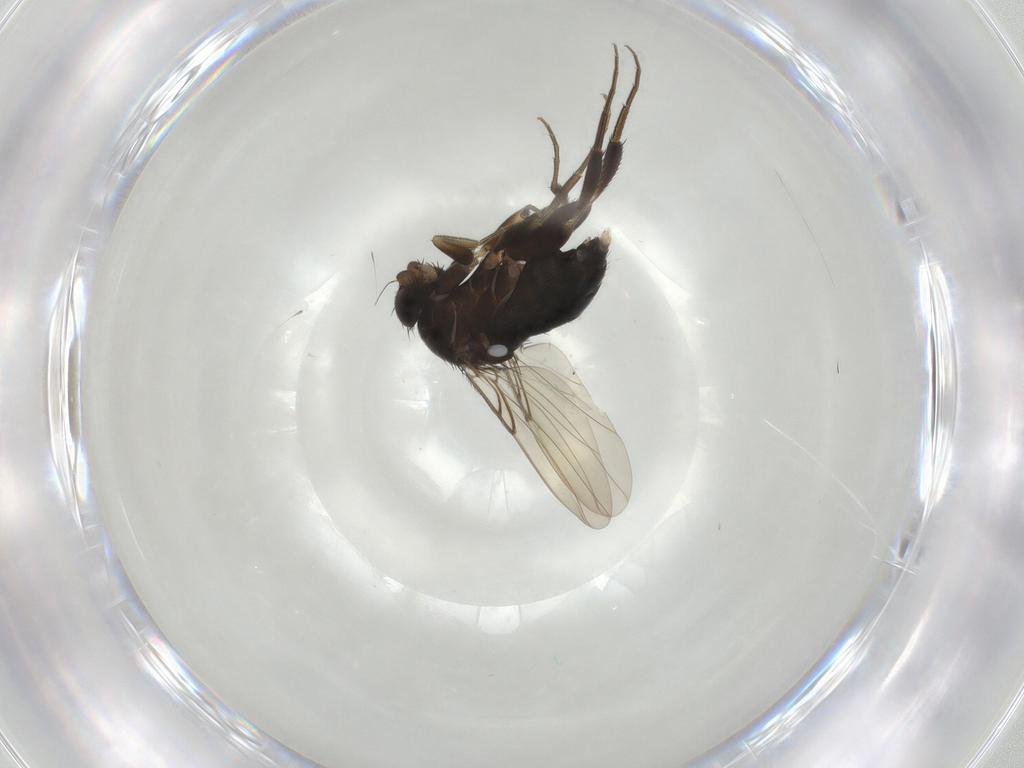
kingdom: Animalia
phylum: Arthropoda
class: Insecta
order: Diptera
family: Phoridae
